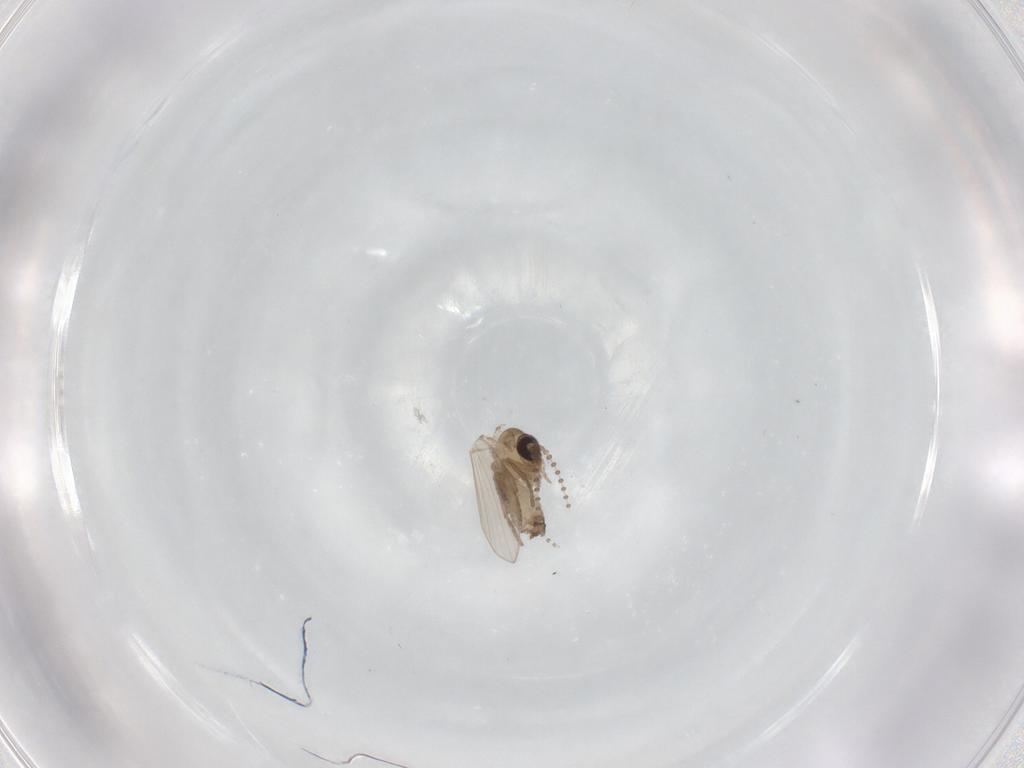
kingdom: Animalia
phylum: Arthropoda
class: Insecta
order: Diptera
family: Psychodidae
